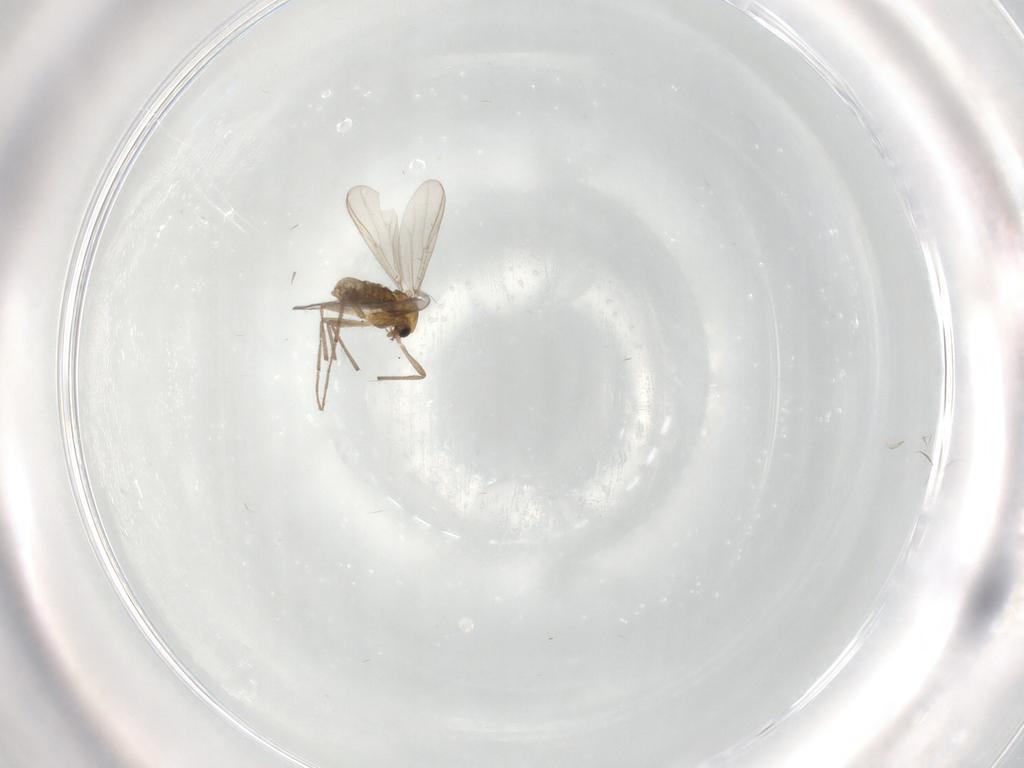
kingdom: Animalia
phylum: Arthropoda
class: Insecta
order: Diptera
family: Chironomidae
